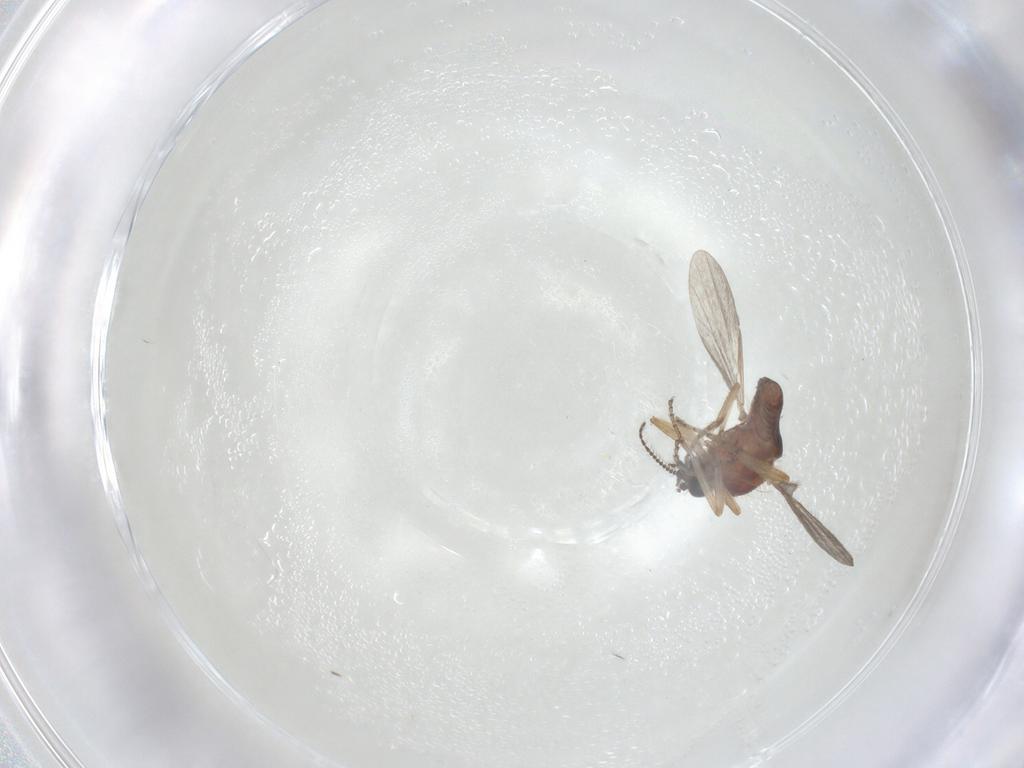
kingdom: Animalia
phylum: Arthropoda
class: Insecta
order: Diptera
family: Ceratopogonidae
